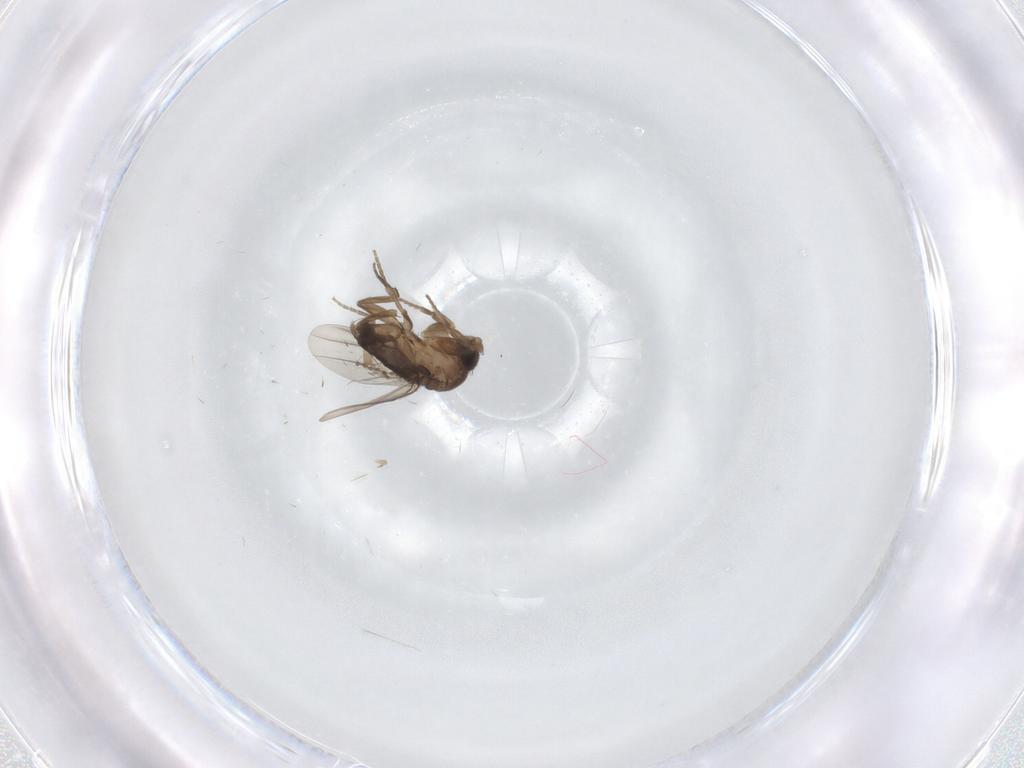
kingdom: Animalia
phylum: Arthropoda
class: Insecta
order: Diptera
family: Phoridae
